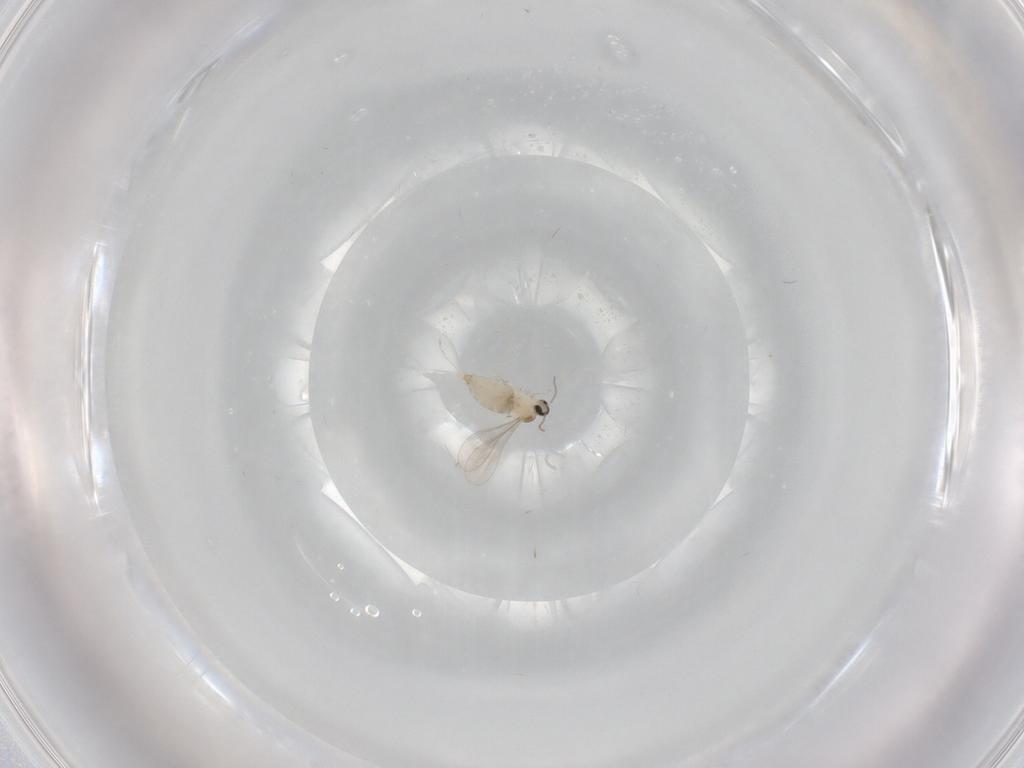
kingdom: Animalia
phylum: Arthropoda
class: Insecta
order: Diptera
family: Cecidomyiidae
